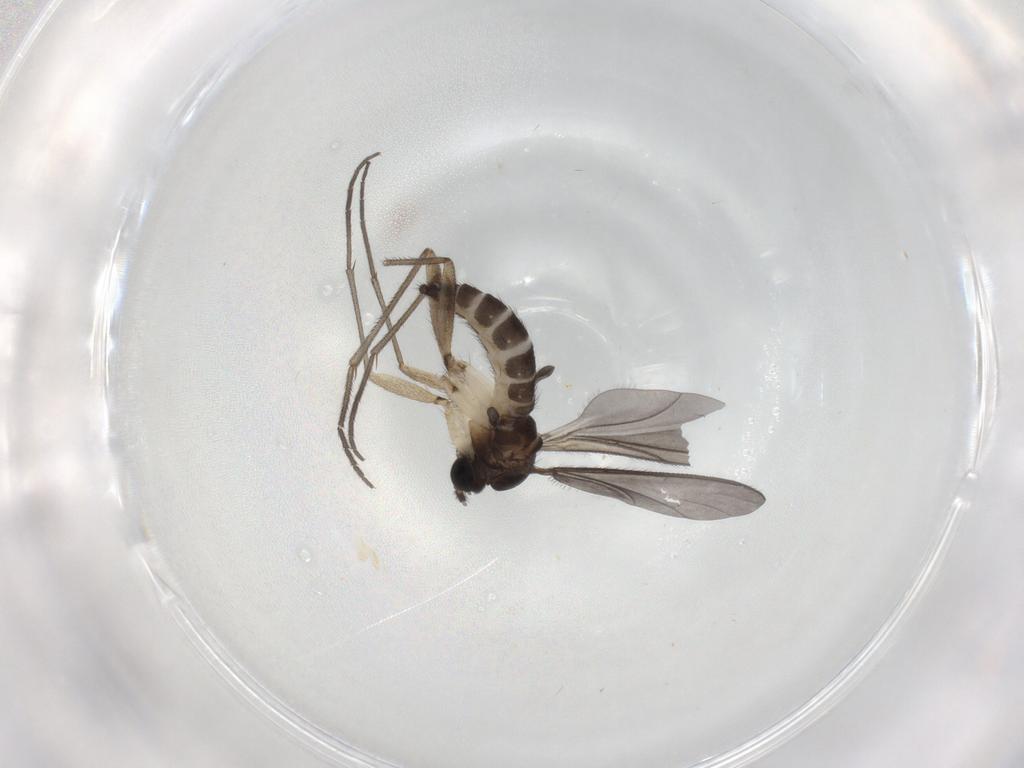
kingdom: Animalia
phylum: Arthropoda
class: Insecta
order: Diptera
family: Sciaridae
